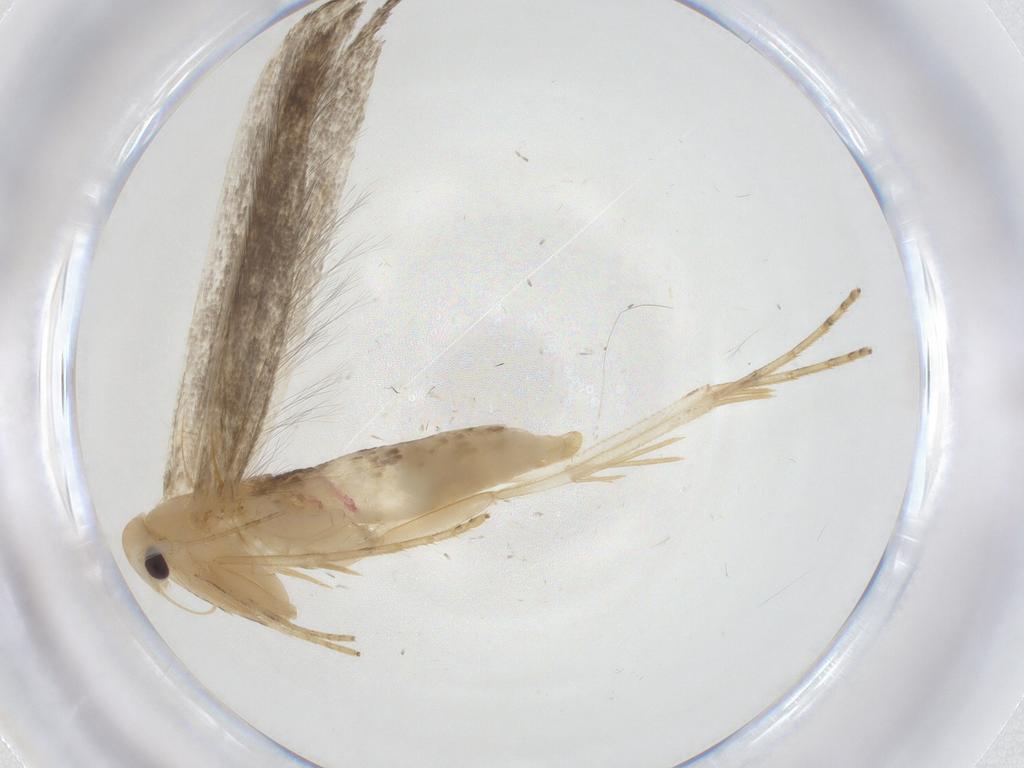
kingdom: Animalia
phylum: Arthropoda
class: Insecta
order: Lepidoptera
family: Elachistidae
